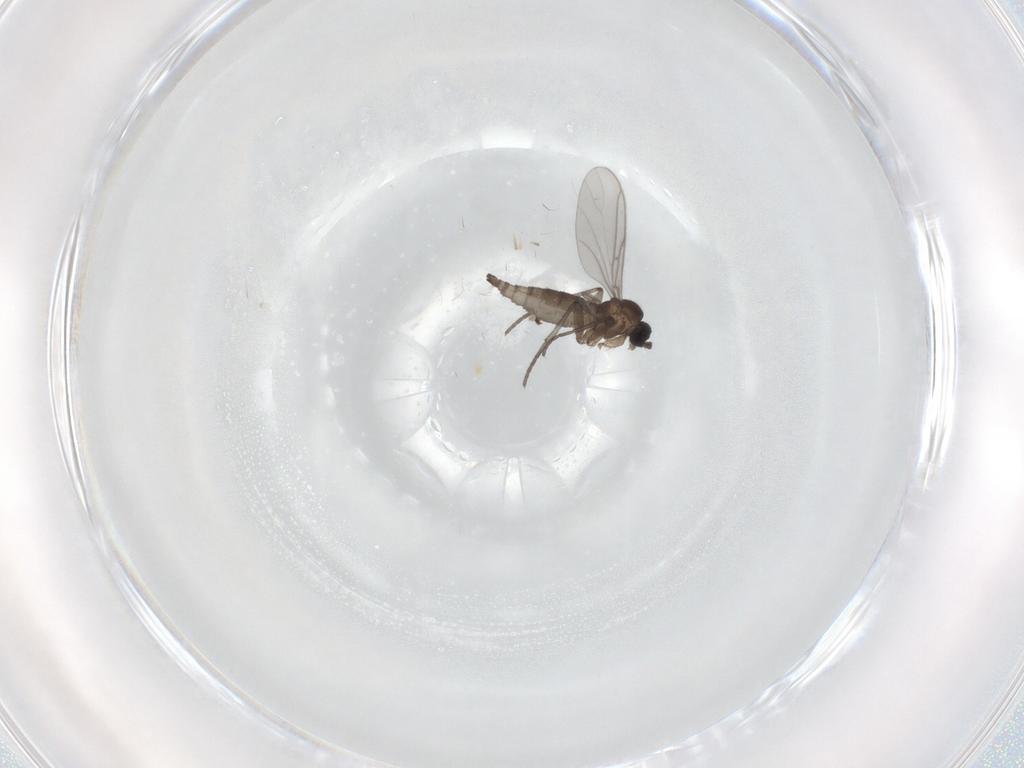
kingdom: Animalia
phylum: Arthropoda
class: Insecta
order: Diptera
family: Sciaridae
